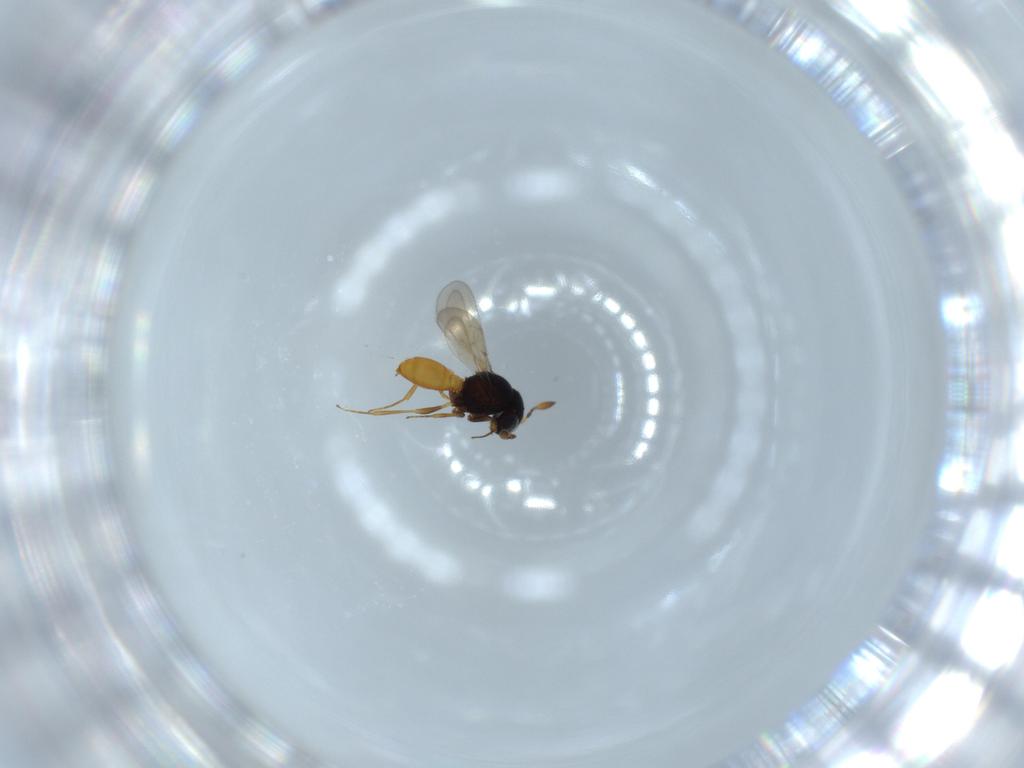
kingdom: Animalia
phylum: Arthropoda
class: Insecta
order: Hymenoptera
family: Scelionidae
